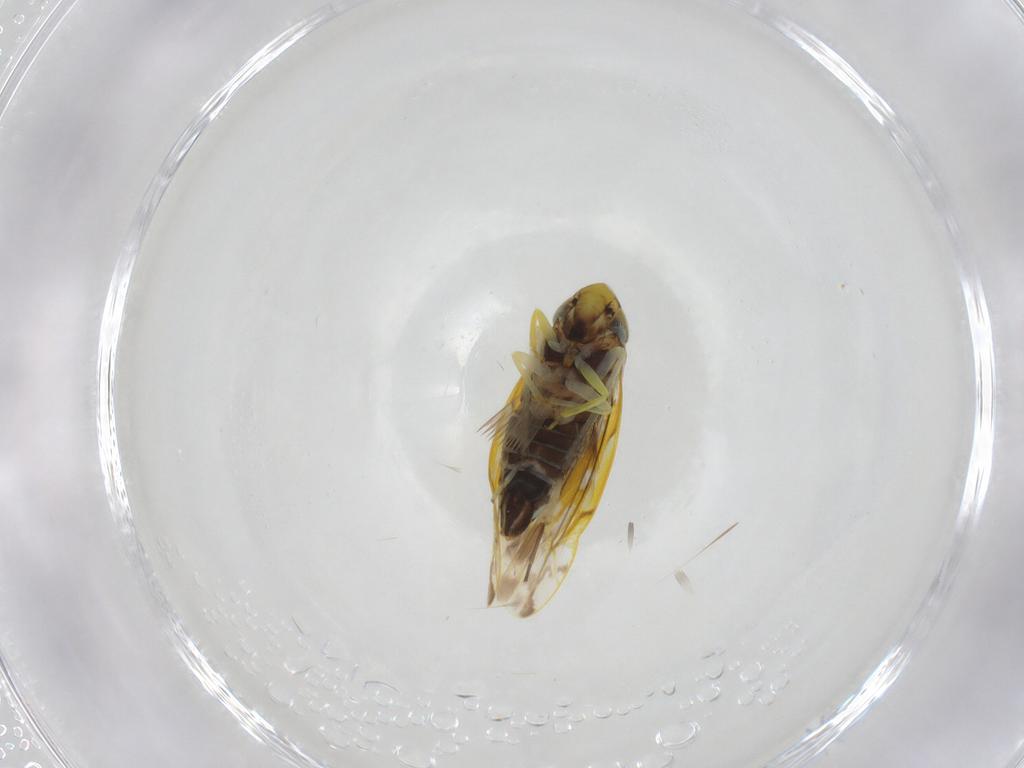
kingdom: Animalia
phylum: Arthropoda
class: Insecta
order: Hemiptera
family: Cicadellidae
